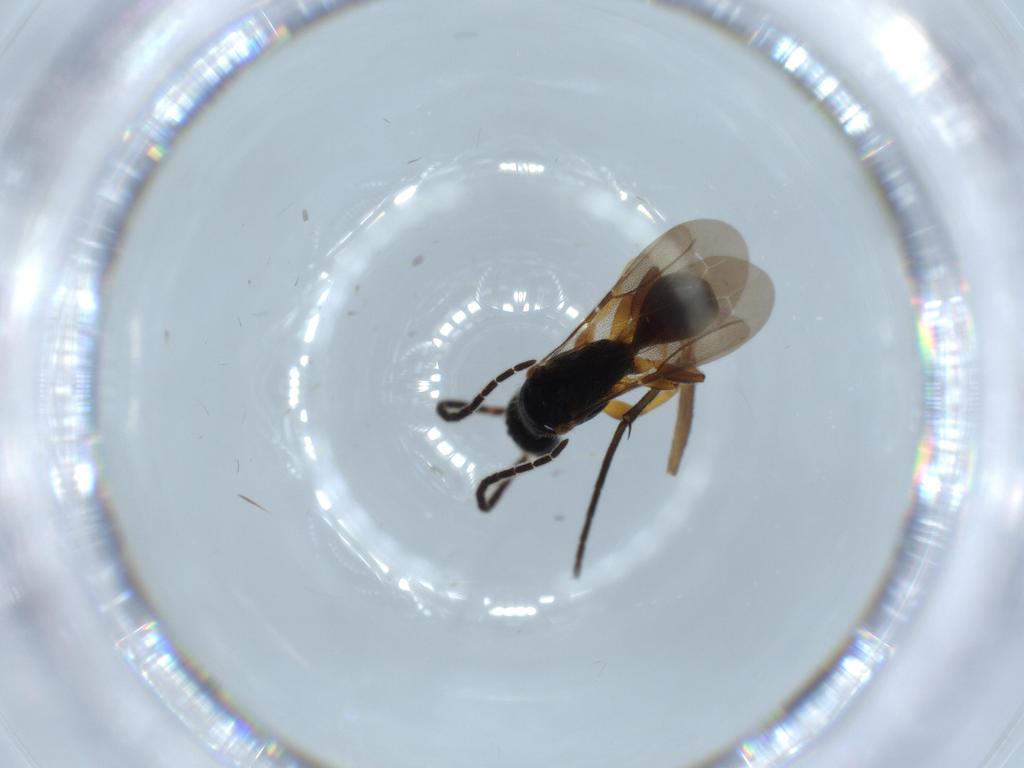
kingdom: Animalia
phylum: Arthropoda
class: Insecta
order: Hymenoptera
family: Bethylidae
